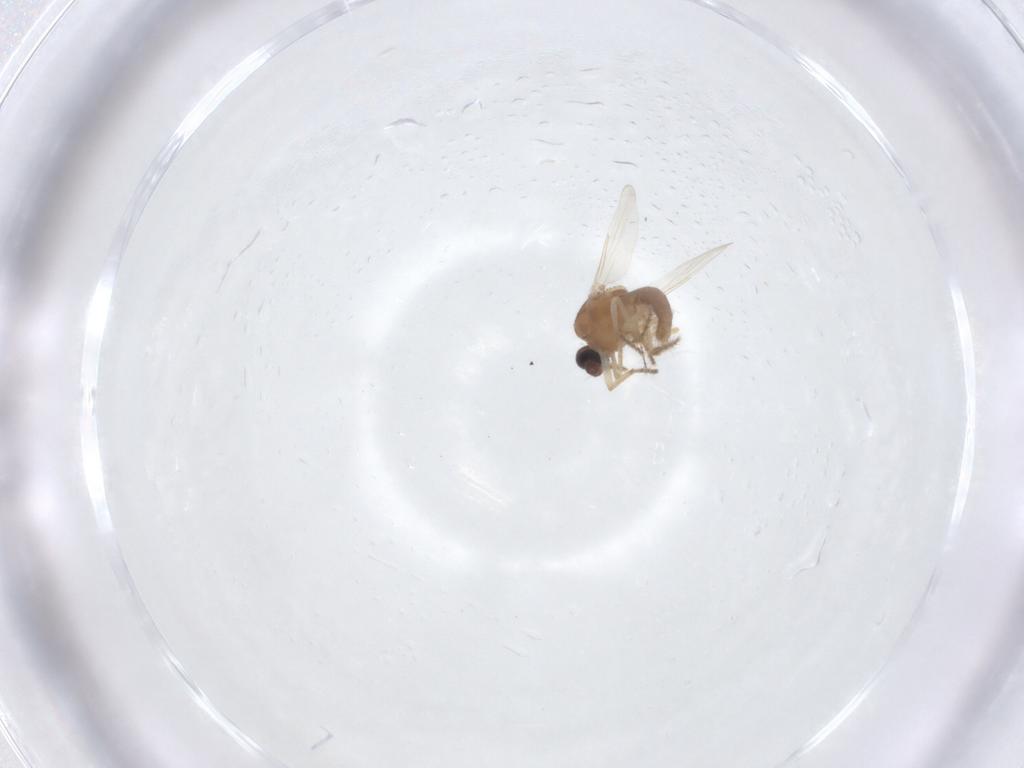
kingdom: Animalia
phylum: Arthropoda
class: Insecta
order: Diptera
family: Ceratopogonidae
